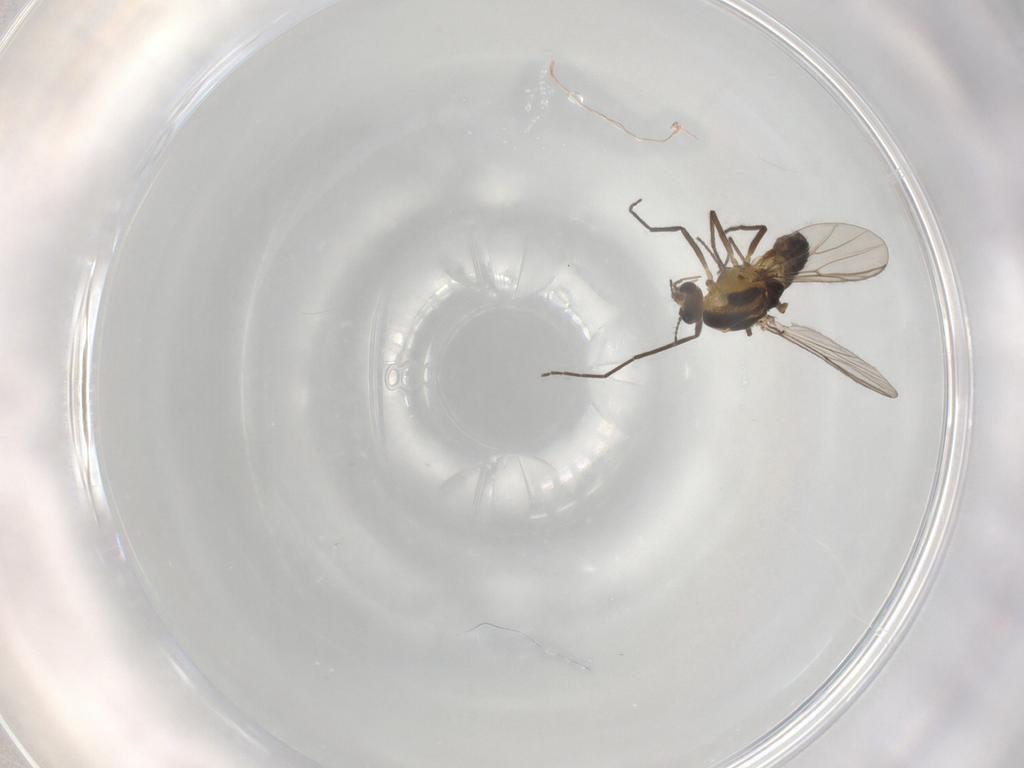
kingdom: Animalia
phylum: Arthropoda
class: Insecta
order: Diptera
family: Chironomidae
